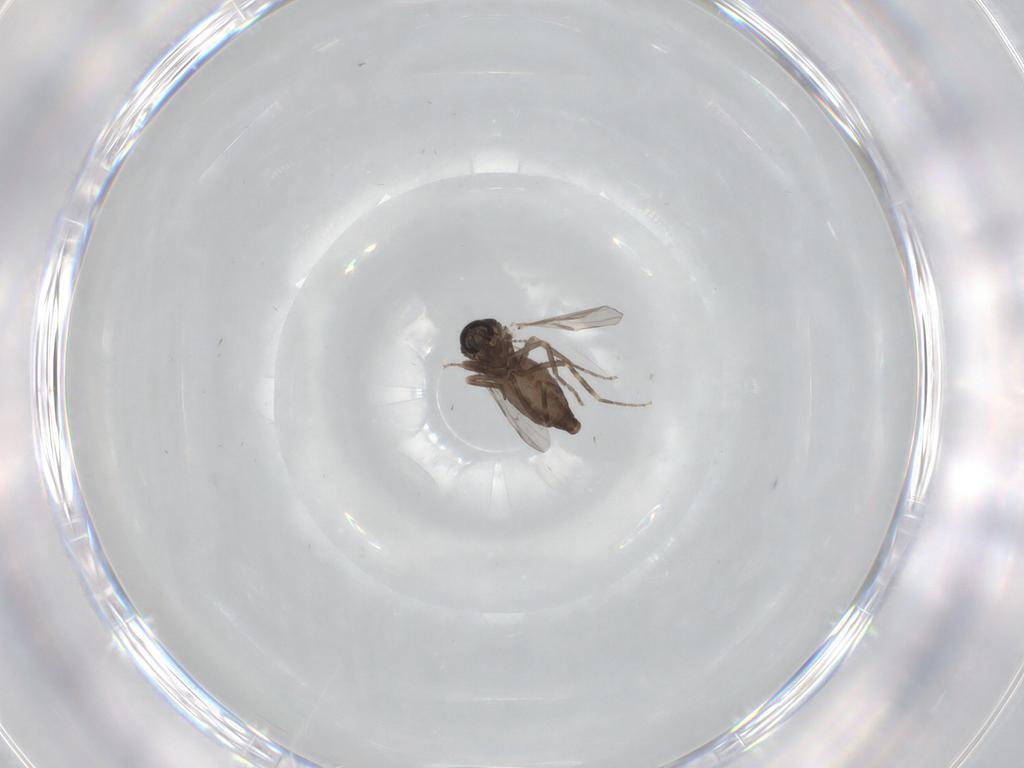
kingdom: Animalia
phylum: Arthropoda
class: Insecta
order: Diptera
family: Ceratopogonidae
